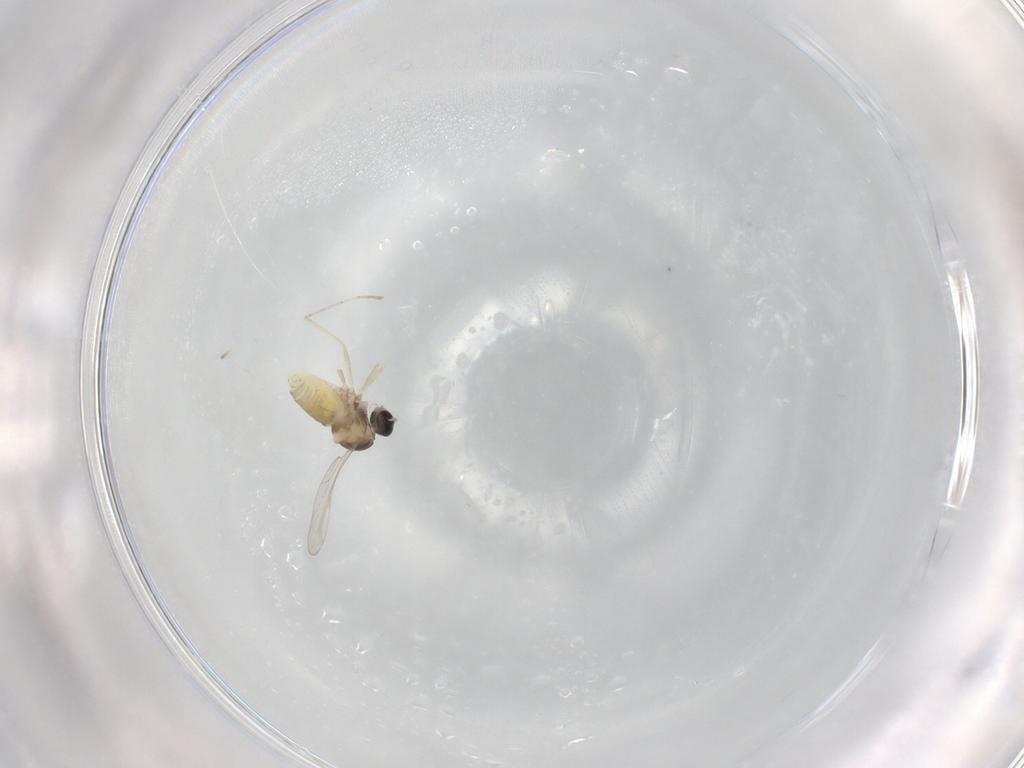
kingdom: Animalia
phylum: Arthropoda
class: Insecta
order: Diptera
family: Cecidomyiidae
